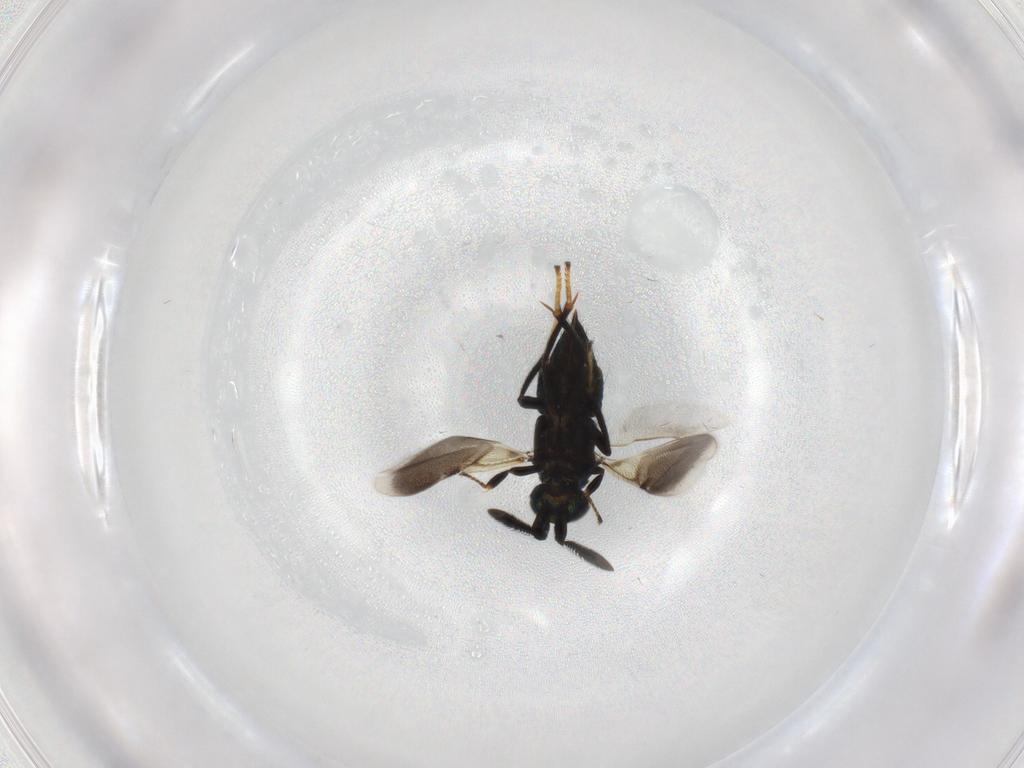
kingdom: Animalia
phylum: Arthropoda
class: Insecta
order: Hymenoptera
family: Encyrtidae
